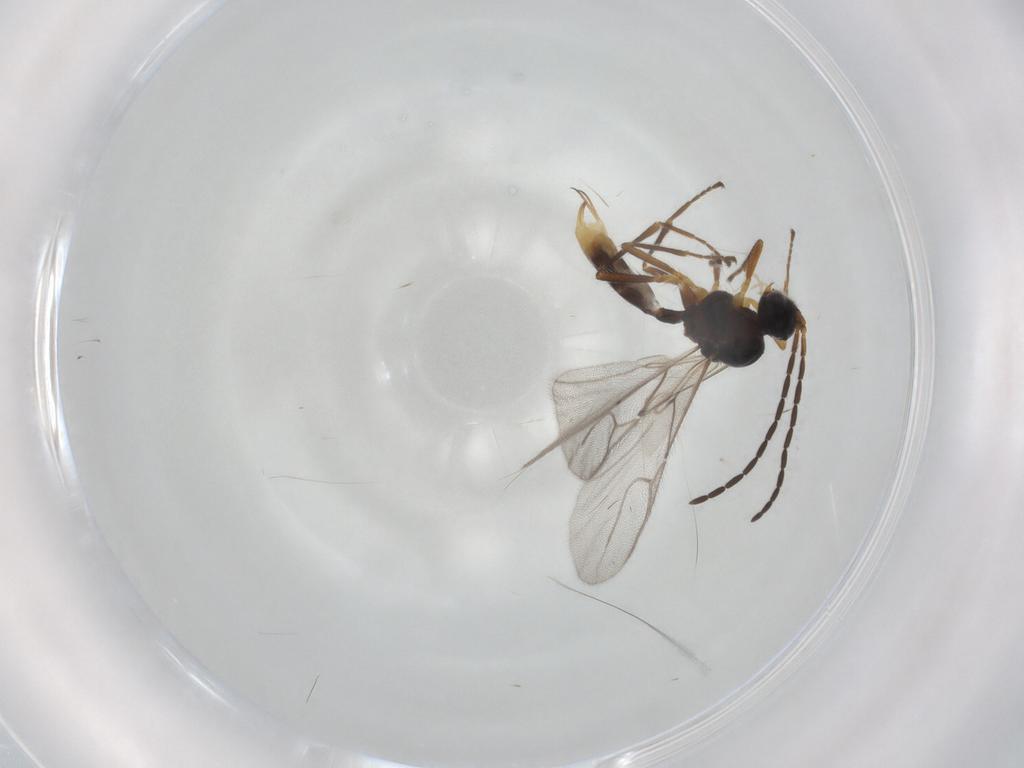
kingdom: Animalia
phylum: Arthropoda
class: Insecta
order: Hymenoptera
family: Braconidae
